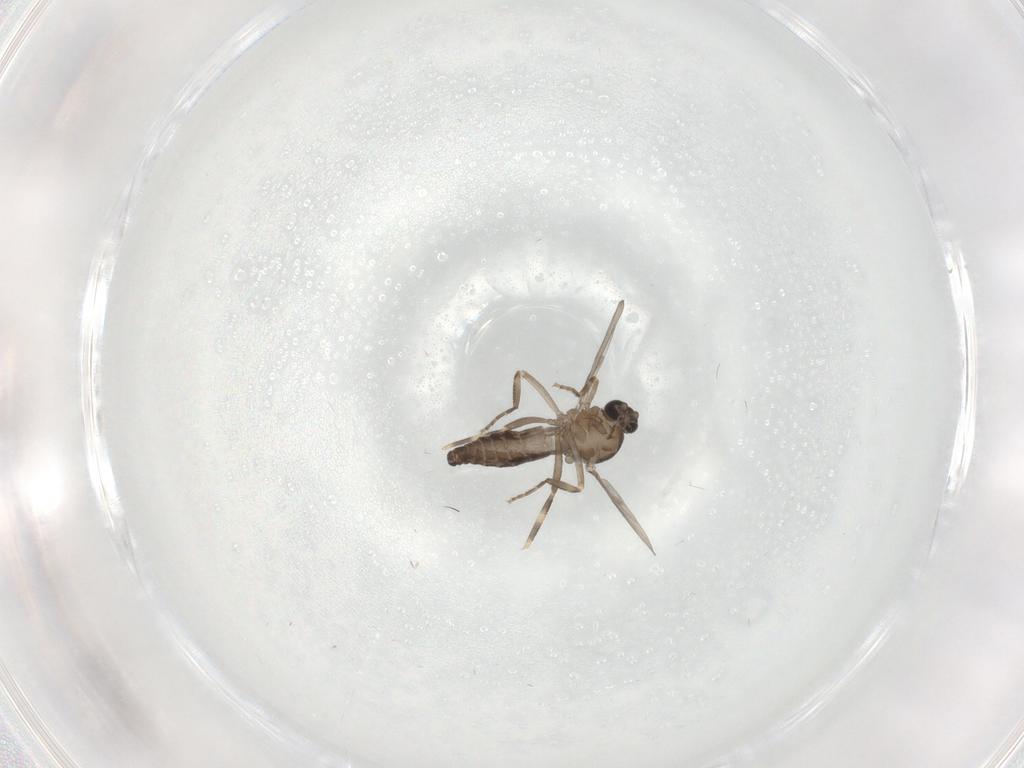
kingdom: Animalia
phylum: Arthropoda
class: Insecta
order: Diptera
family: Ceratopogonidae
